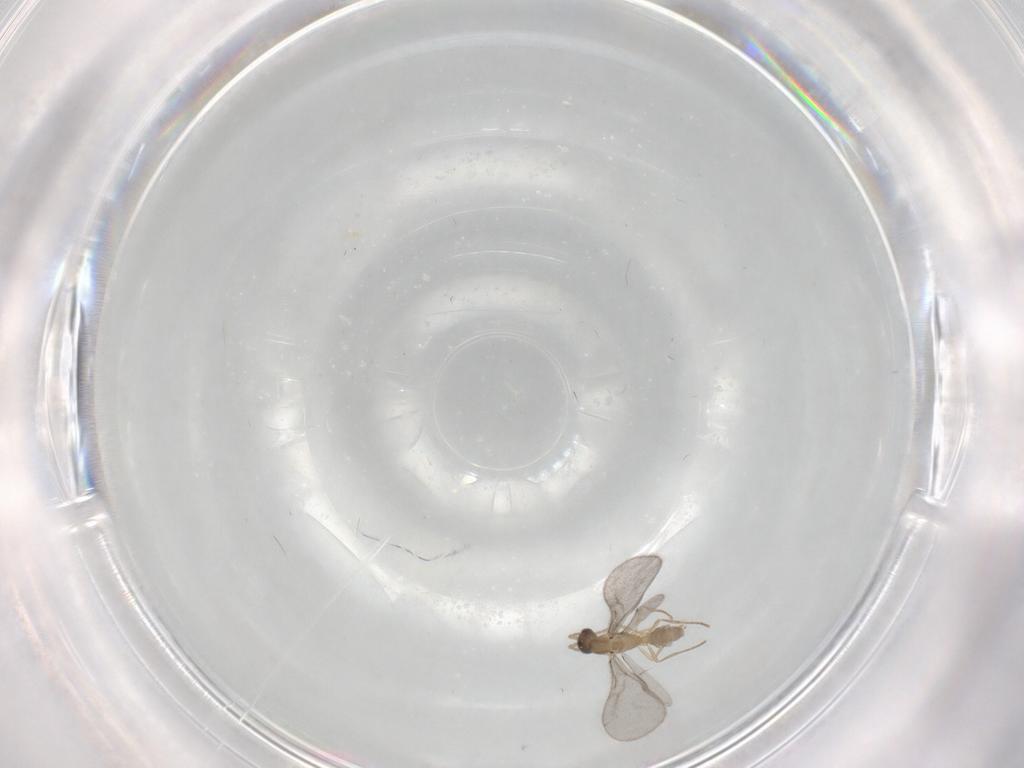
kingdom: Animalia
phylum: Arthropoda
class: Insecta
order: Hymenoptera
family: Formicidae
